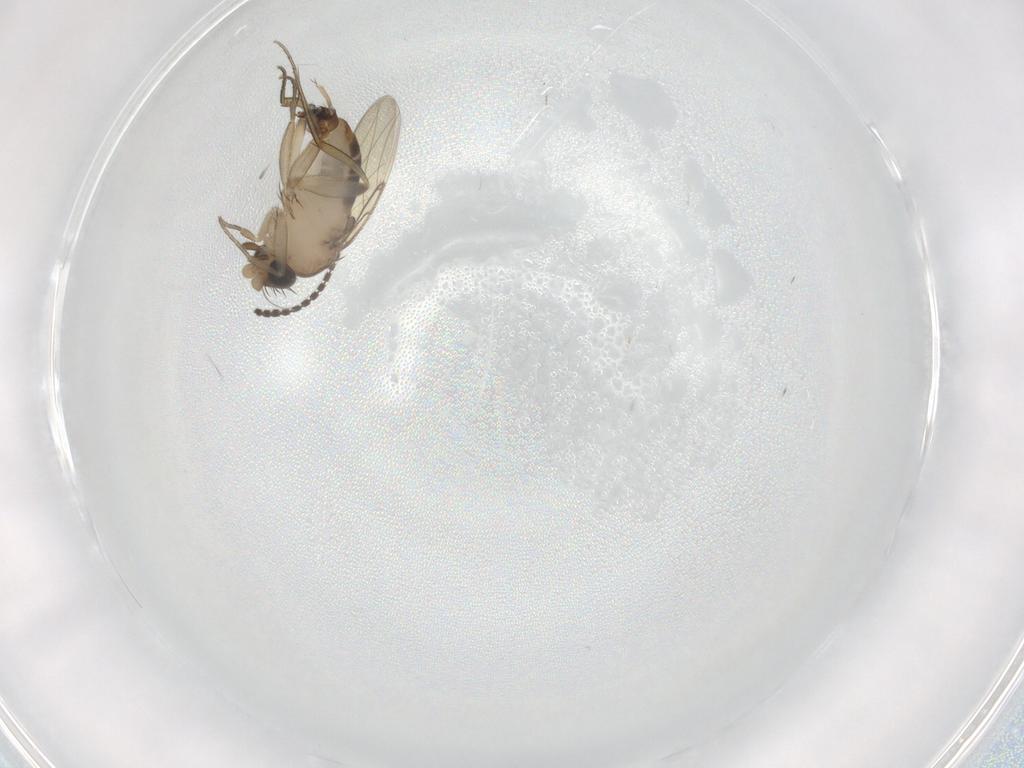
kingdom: Animalia
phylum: Arthropoda
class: Insecta
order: Diptera
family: Phoridae
